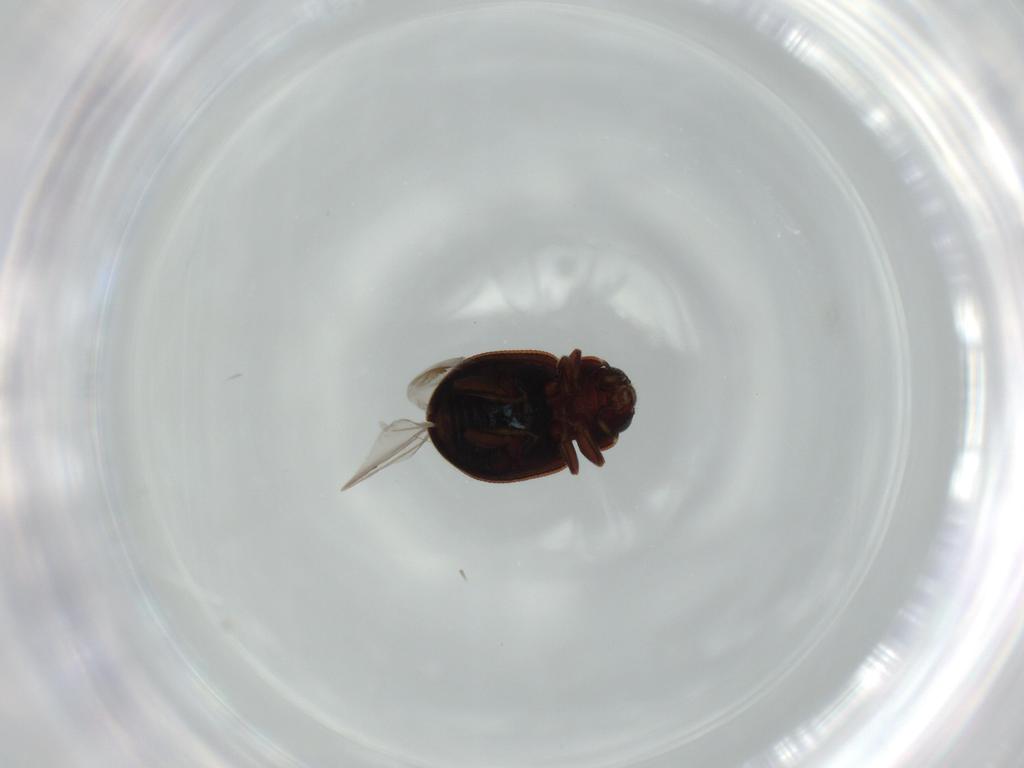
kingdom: Animalia
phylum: Arthropoda
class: Insecta
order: Coleoptera
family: Coccinellidae
